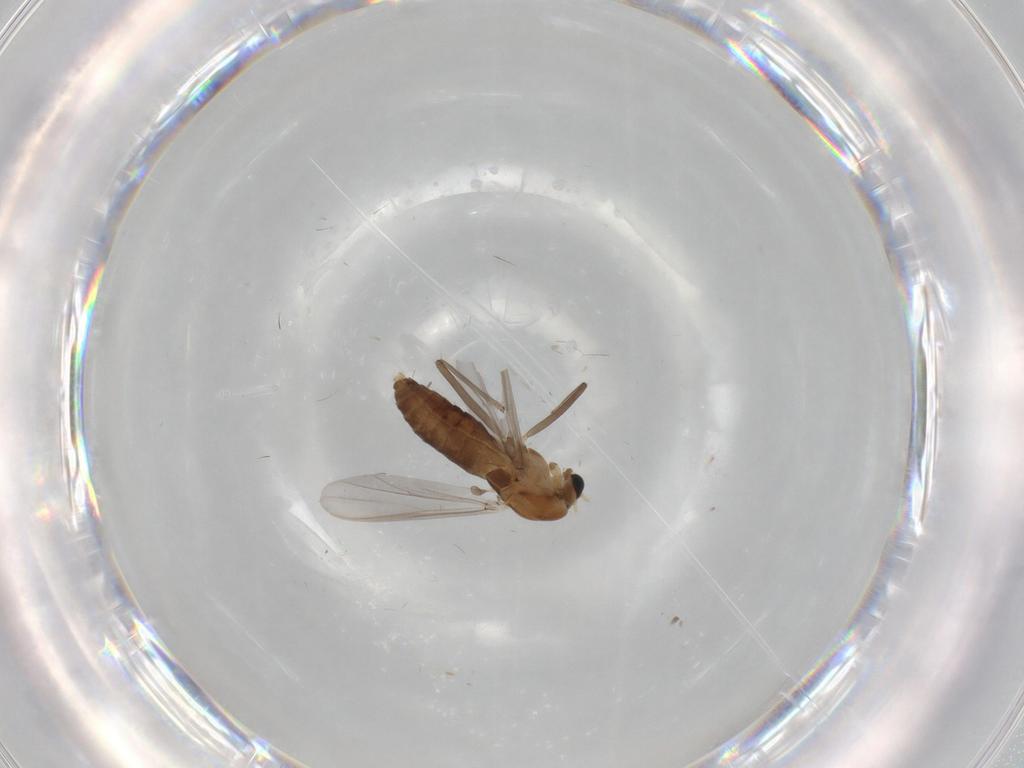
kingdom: Animalia
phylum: Arthropoda
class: Insecta
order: Diptera
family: Chironomidae
